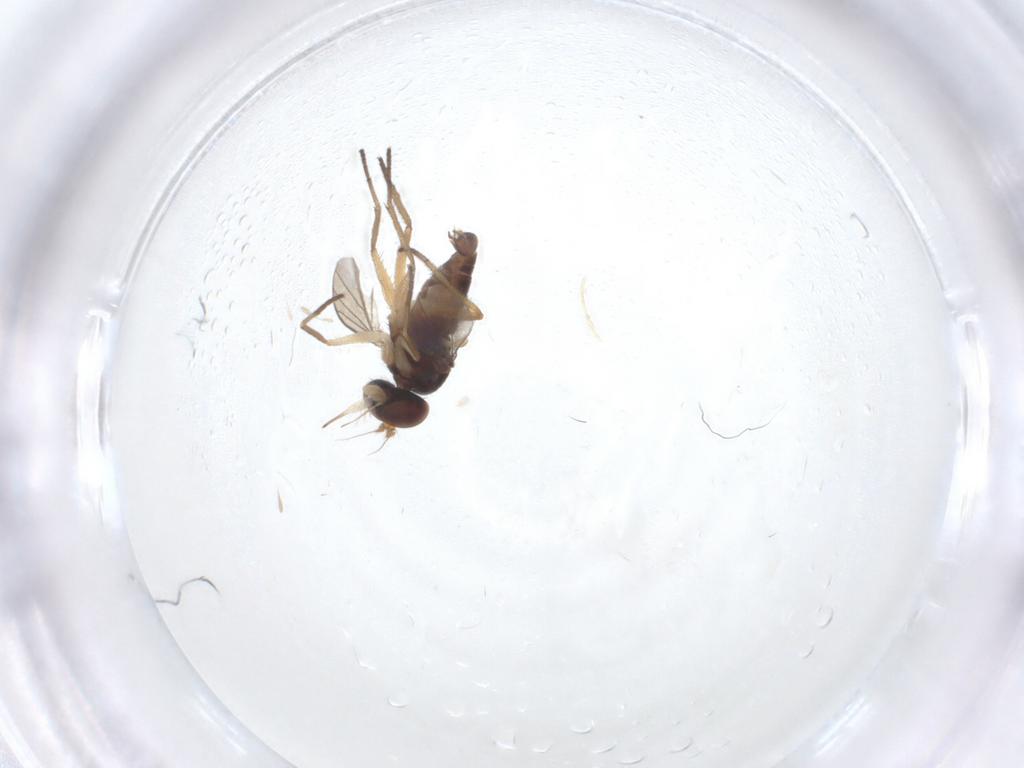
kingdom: Animalia
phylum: Arthropoda
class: Insecta
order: Diptera
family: Dolichopodidae
